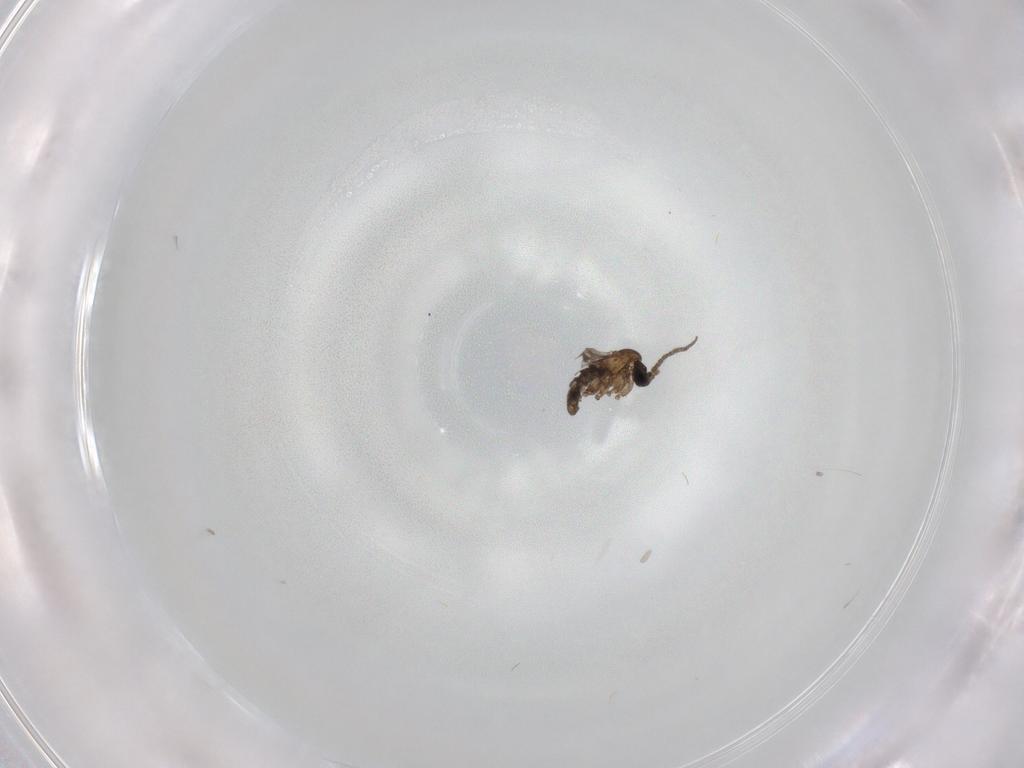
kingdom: Animalia
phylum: Arthropoda
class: Insecta
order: Diptera
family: Sciaridae
